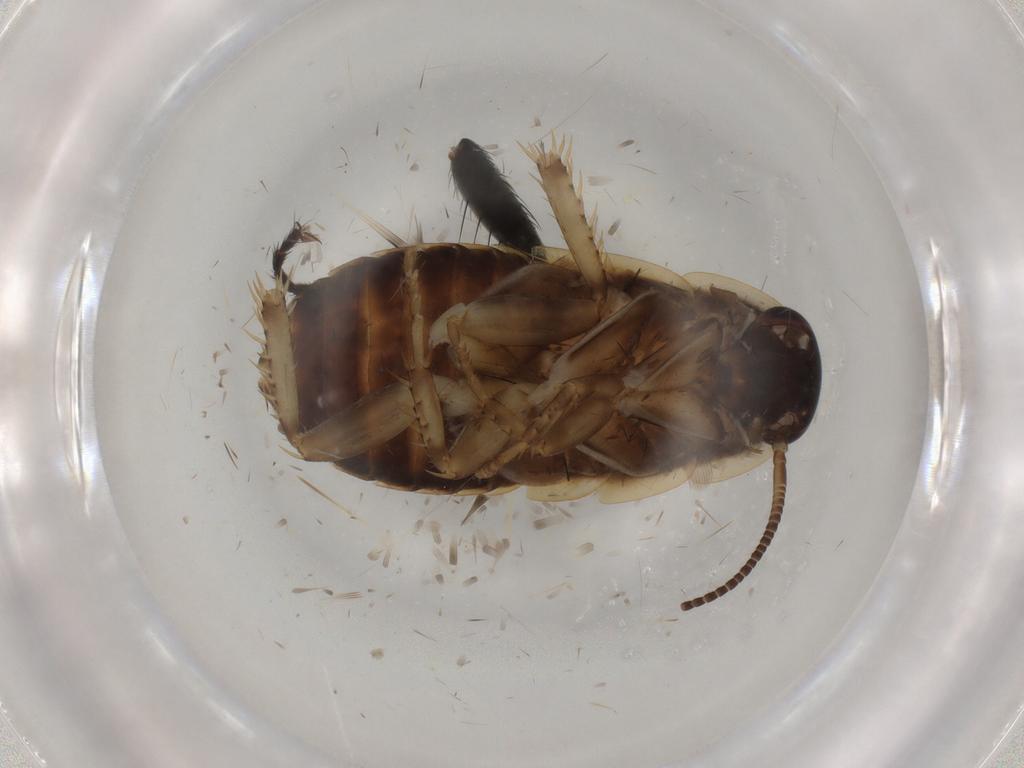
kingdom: Animalia
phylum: Arthropoda
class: Insecta
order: Blattodea
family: Ectobiidae
